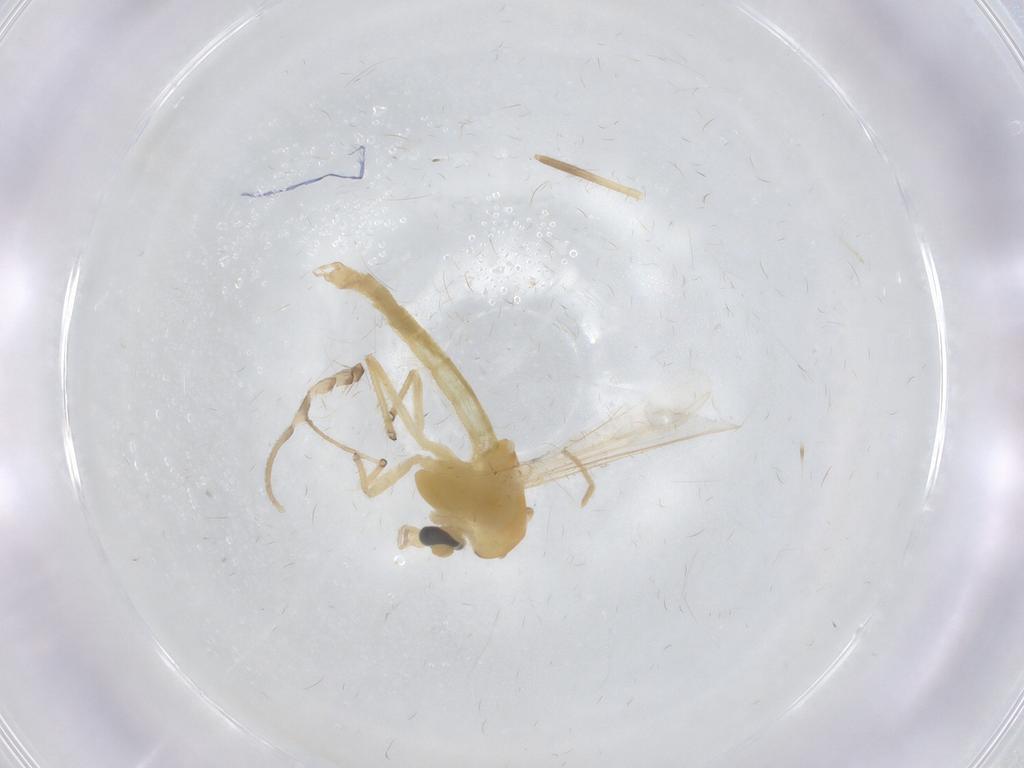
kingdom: Animalia
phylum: Arthropoda
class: Insecta
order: Diptera
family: Chironomidae
